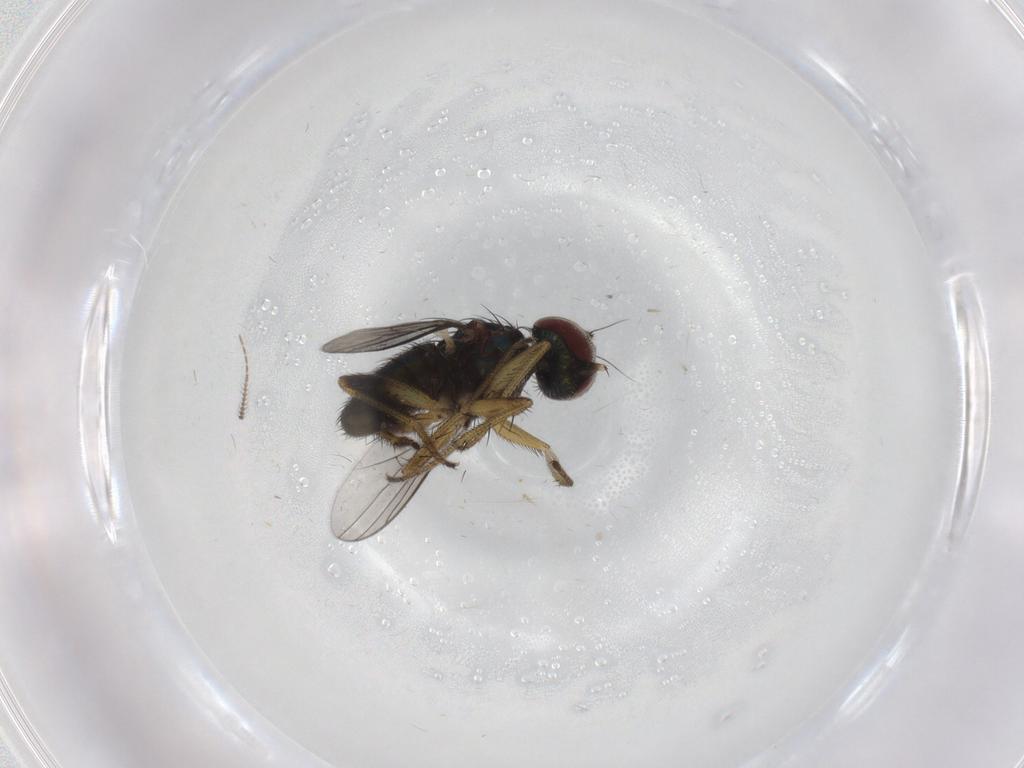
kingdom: Animalia
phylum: Arthropoda
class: Insecta
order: Diptera
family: Dolichopodidae
